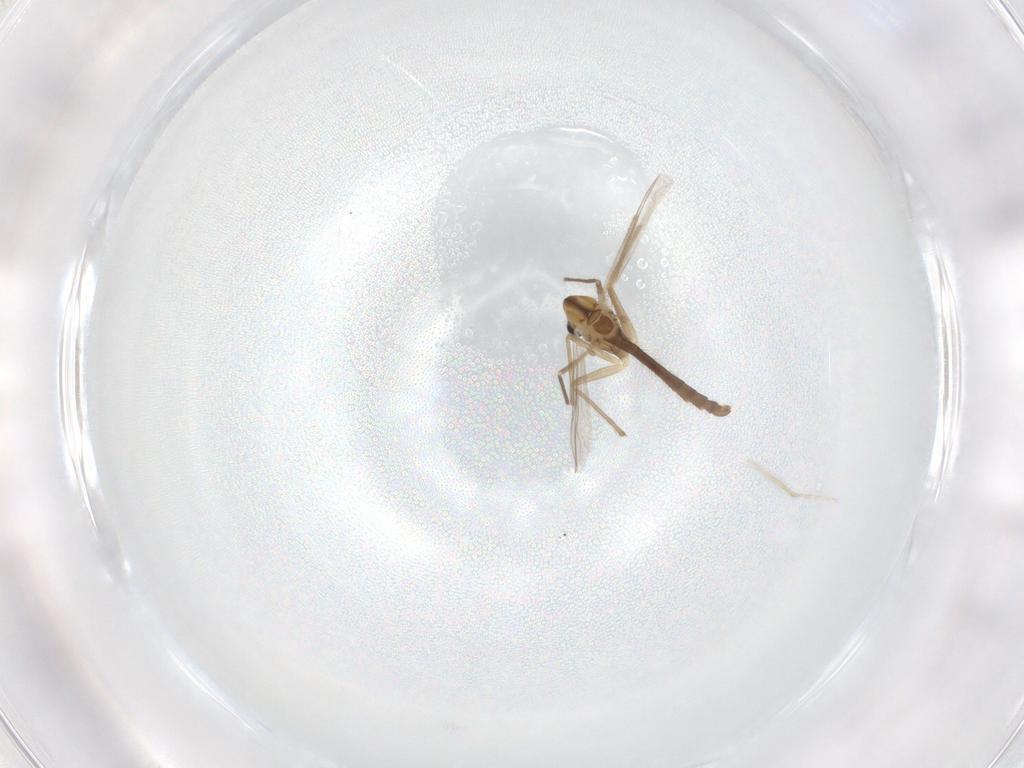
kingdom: Animalia
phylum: Arthropoda
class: Insecta
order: Diptera
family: Chironomidae
